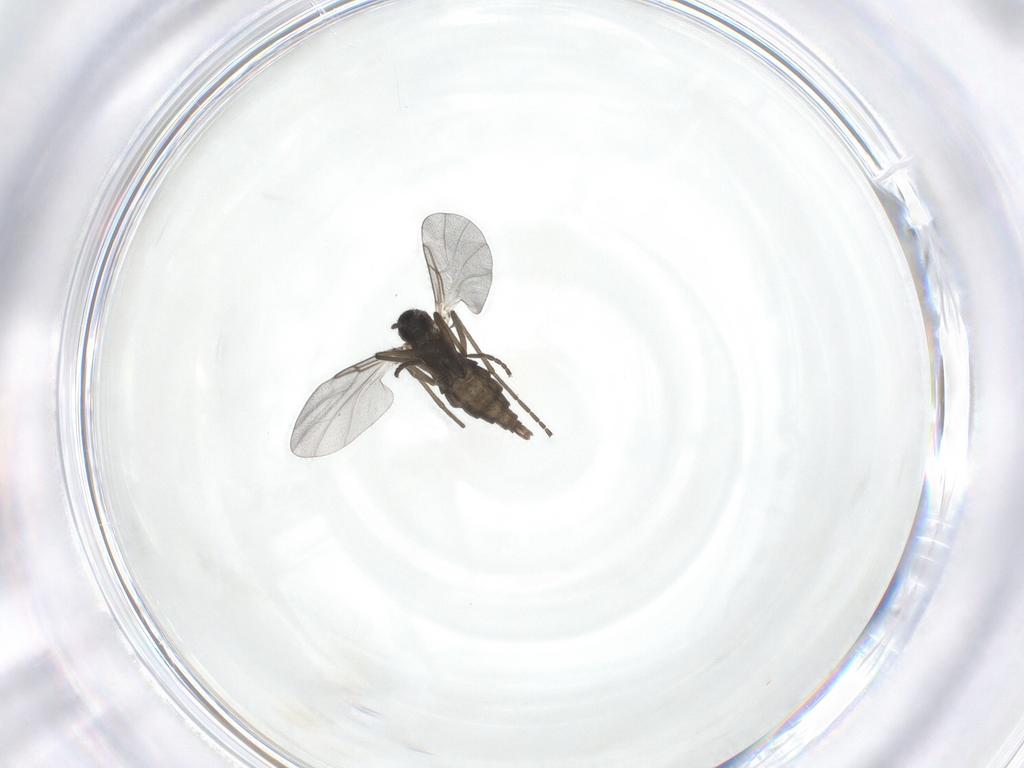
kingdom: Animalia
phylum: Arthropoda
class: Insecta
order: Diptera
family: Cecidomyiidae
